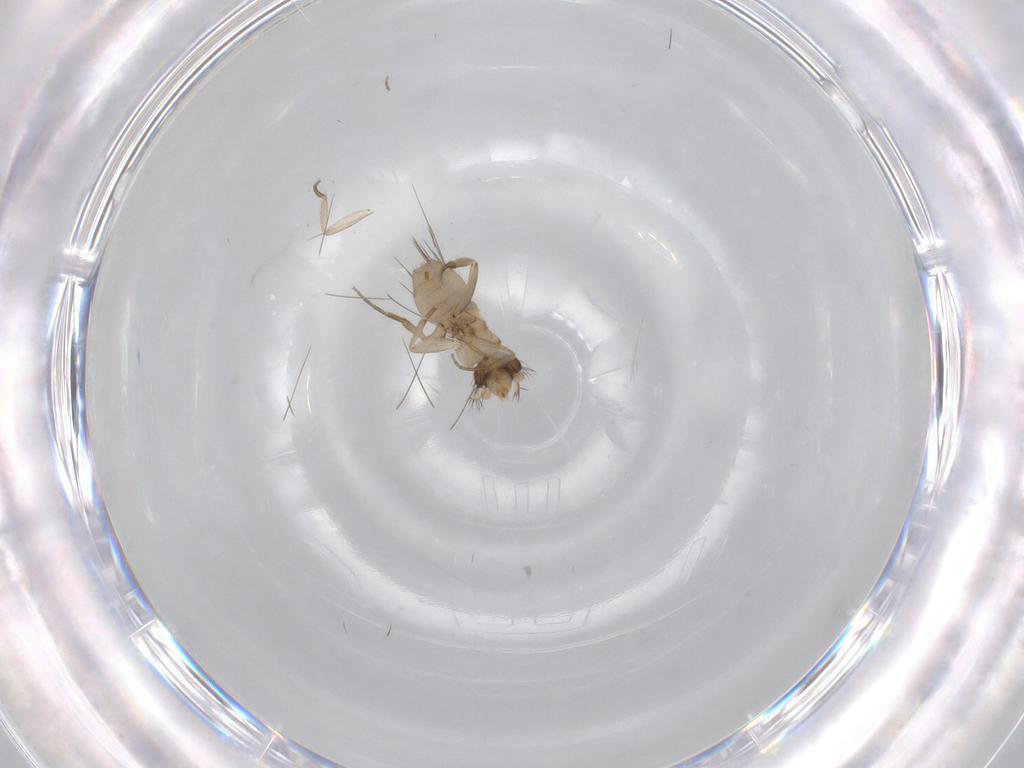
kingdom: Animalia
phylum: Arthropoda
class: Insecta
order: Diptera
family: Phoridae
